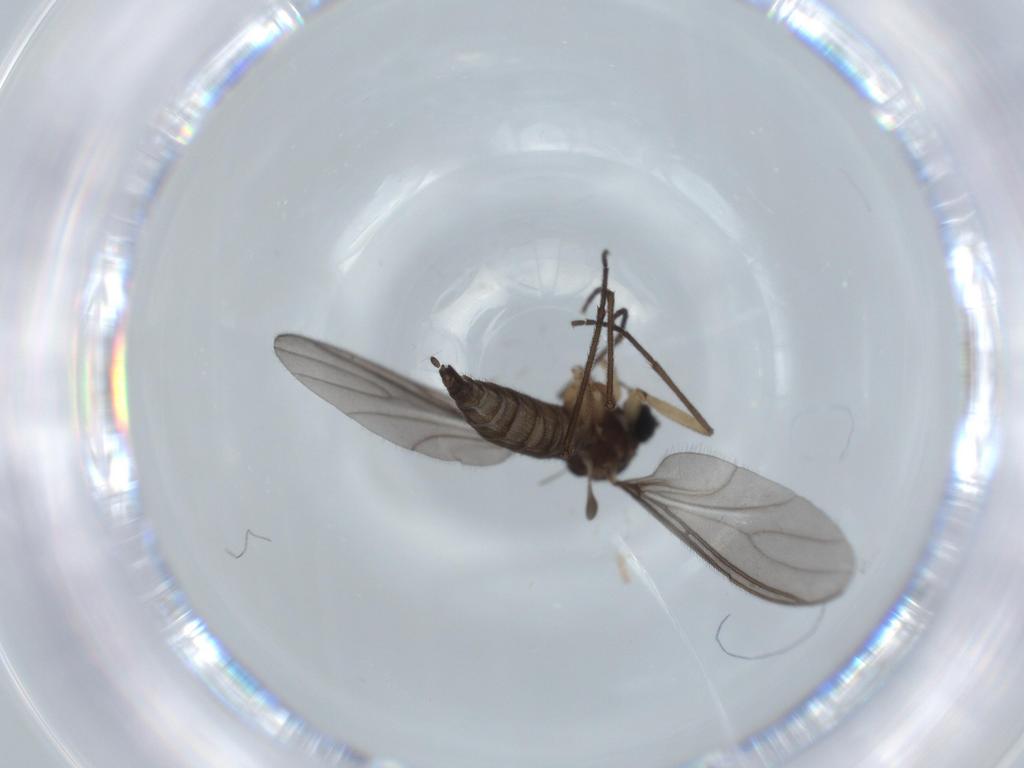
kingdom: Animalia
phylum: Arthropoda
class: Insecta
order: Diptera
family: Sciaridae
